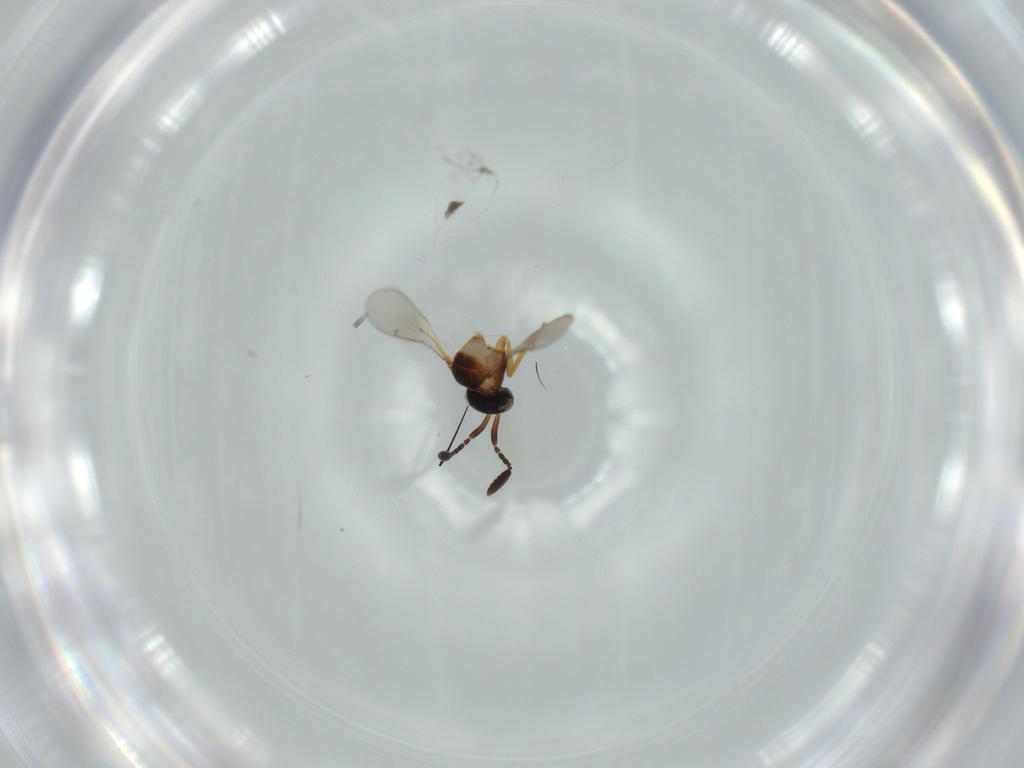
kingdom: Animalia
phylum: Arthropoda
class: Insecta
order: Hymenoptera
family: Scelionidae
